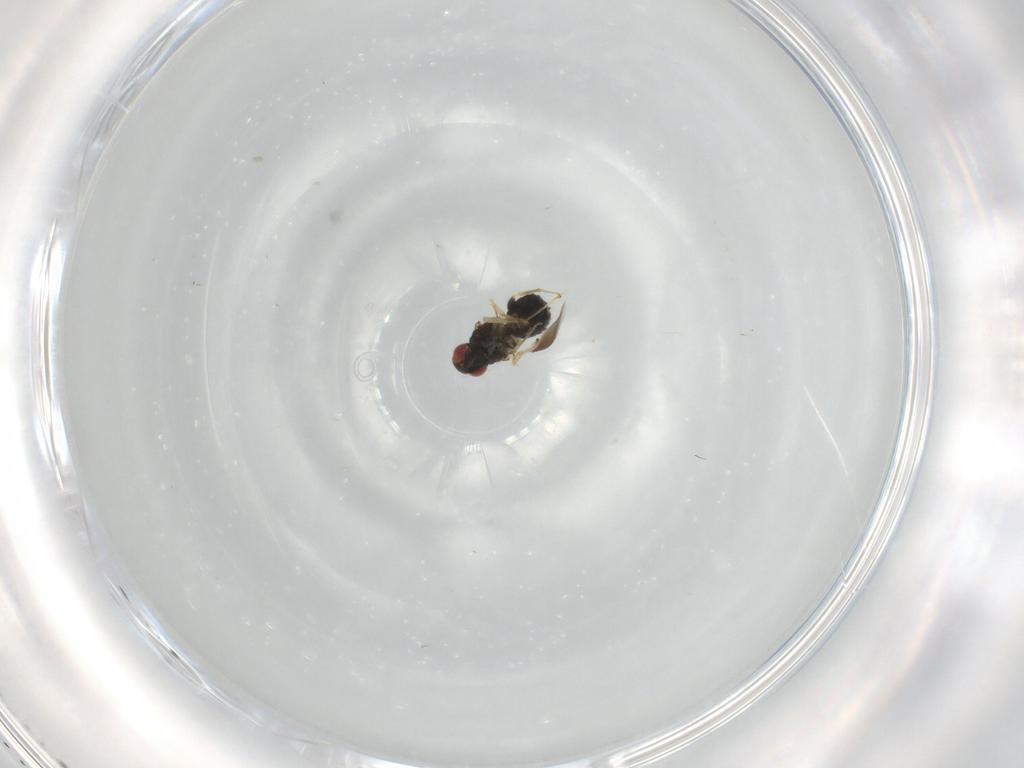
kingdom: Animalia
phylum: Arthropoda
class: Insecta
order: Hymenoptera
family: Eulophidae
